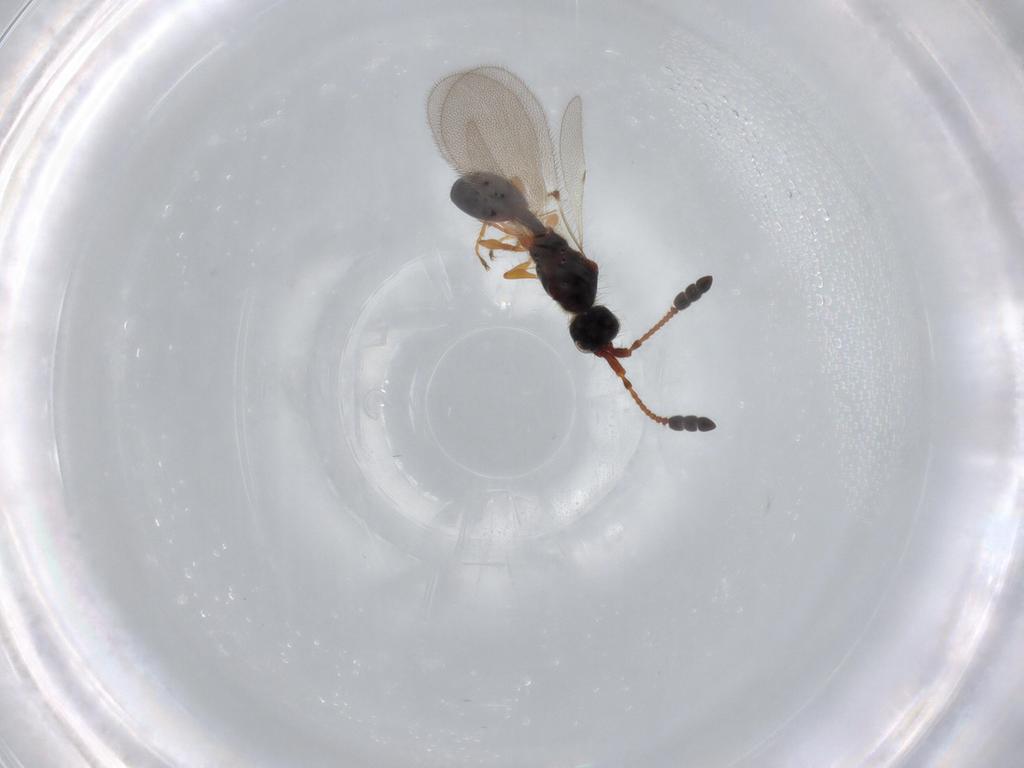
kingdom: Animalia
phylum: Arthropoda
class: Insecta
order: Hymenoptera
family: Diapriidae
